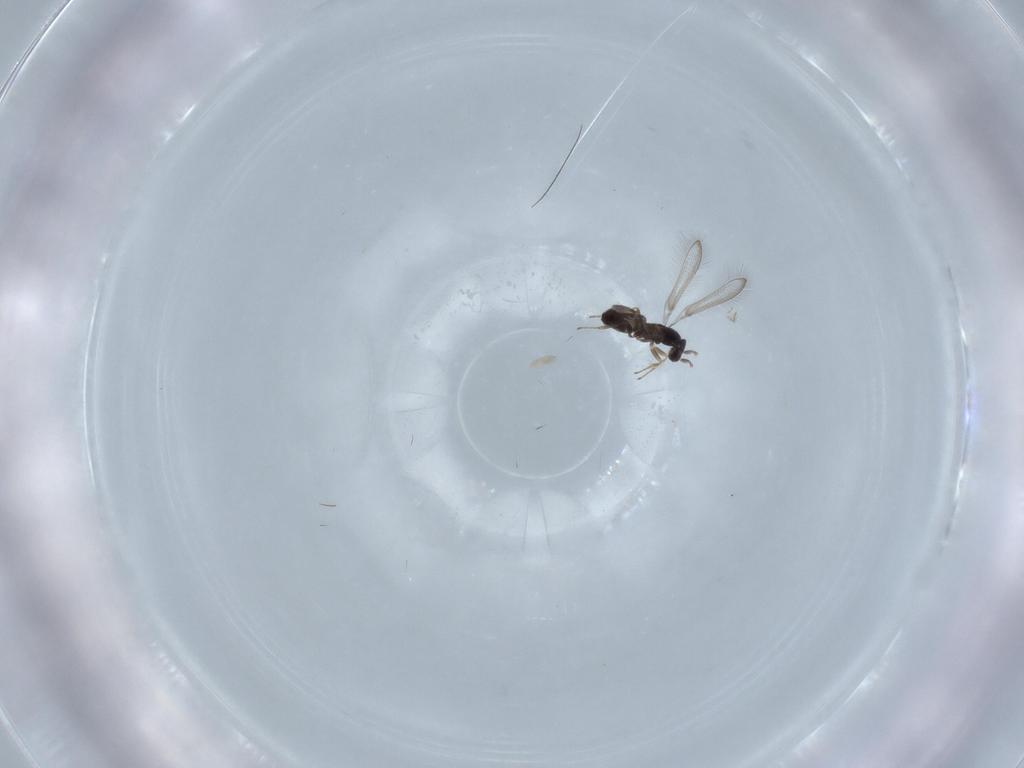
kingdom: Animalia
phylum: Arthropoda
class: Insecta
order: Hymenoptera
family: Mymaridae
